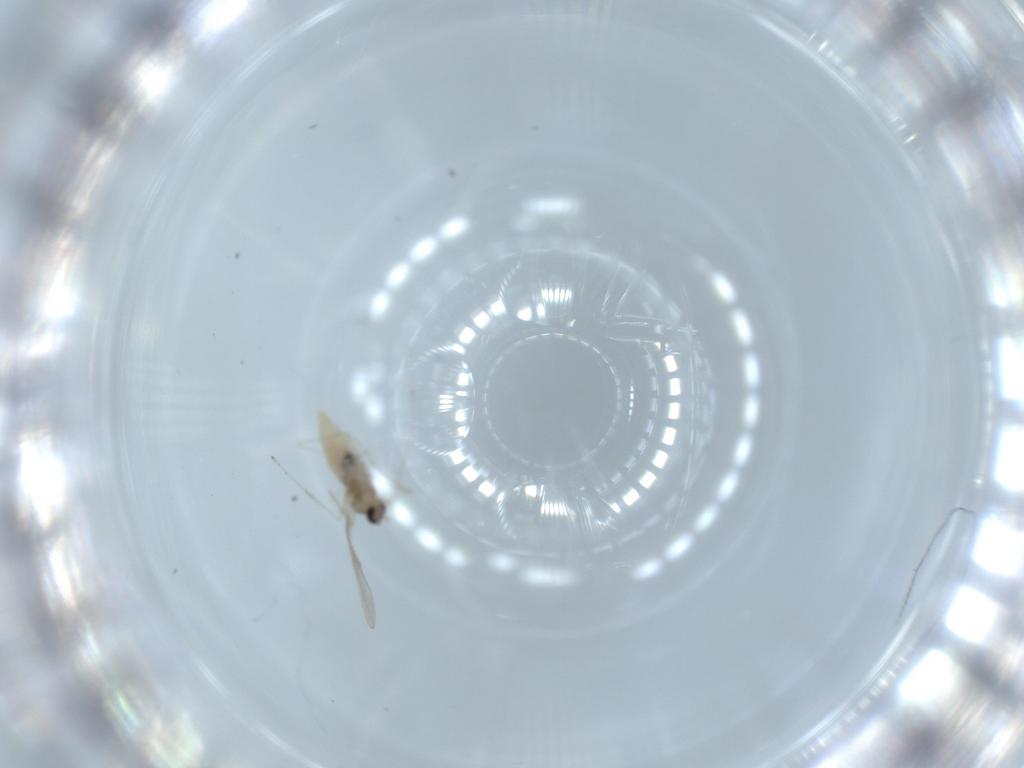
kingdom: Animalia
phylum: Arthropoda
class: Insecta
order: Diptera
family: Cecidomyiidae
